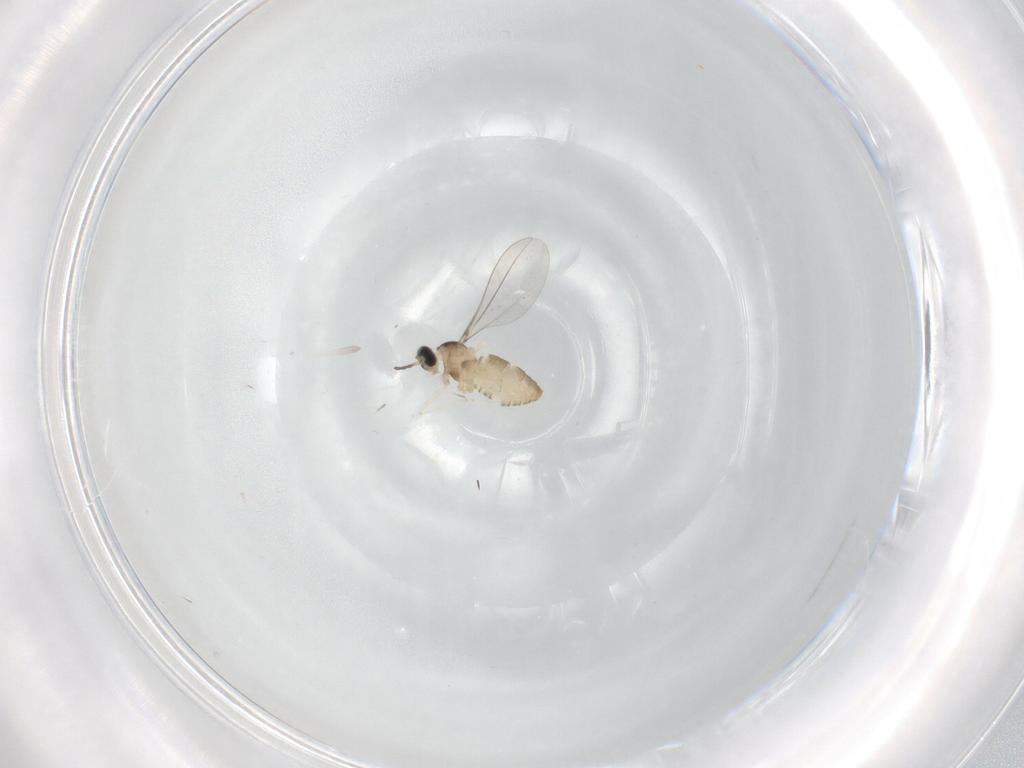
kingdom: Animalia
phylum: Arthropoda
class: Insecta
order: Diptera
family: Cecidomyiidae
